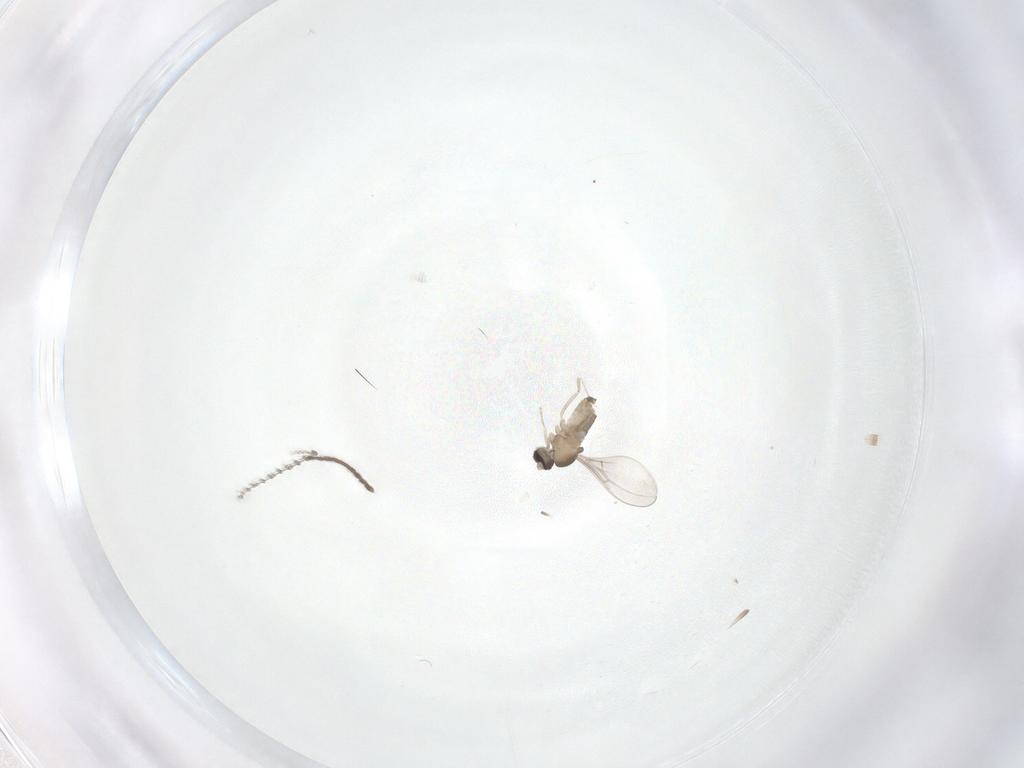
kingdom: Animalia
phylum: Arthropoda
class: Insecta
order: Diptera
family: Cecidomyiidae
